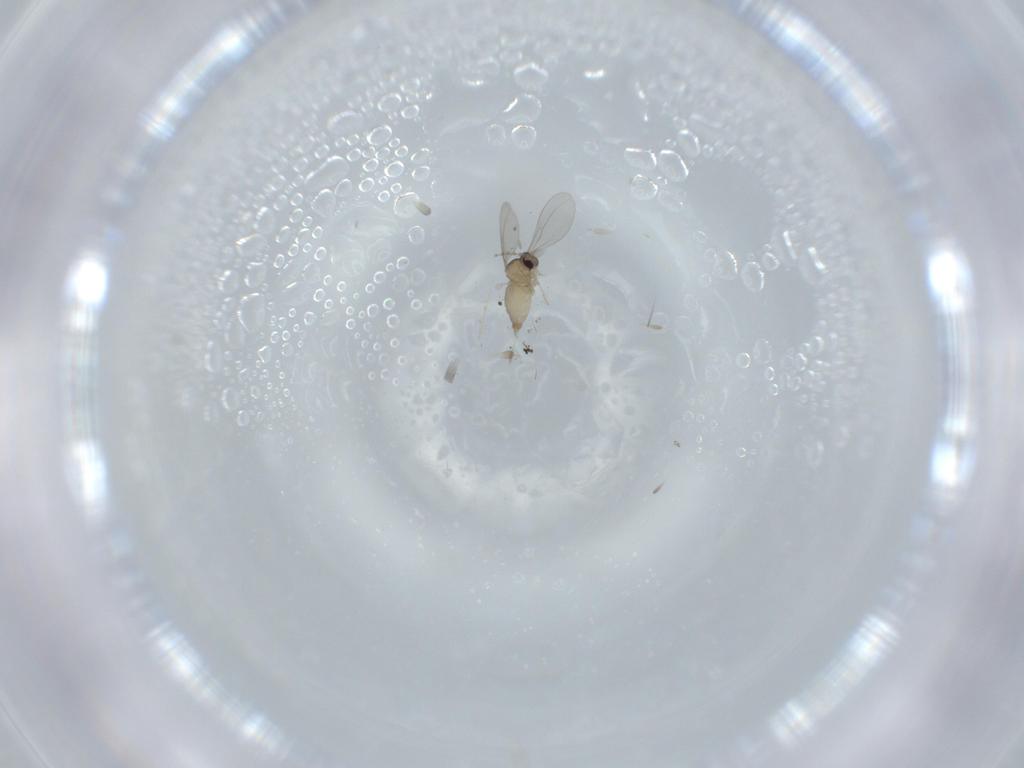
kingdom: Animalia
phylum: Arthropoda
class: Insecta
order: Diptera
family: Cecidomyiidae
